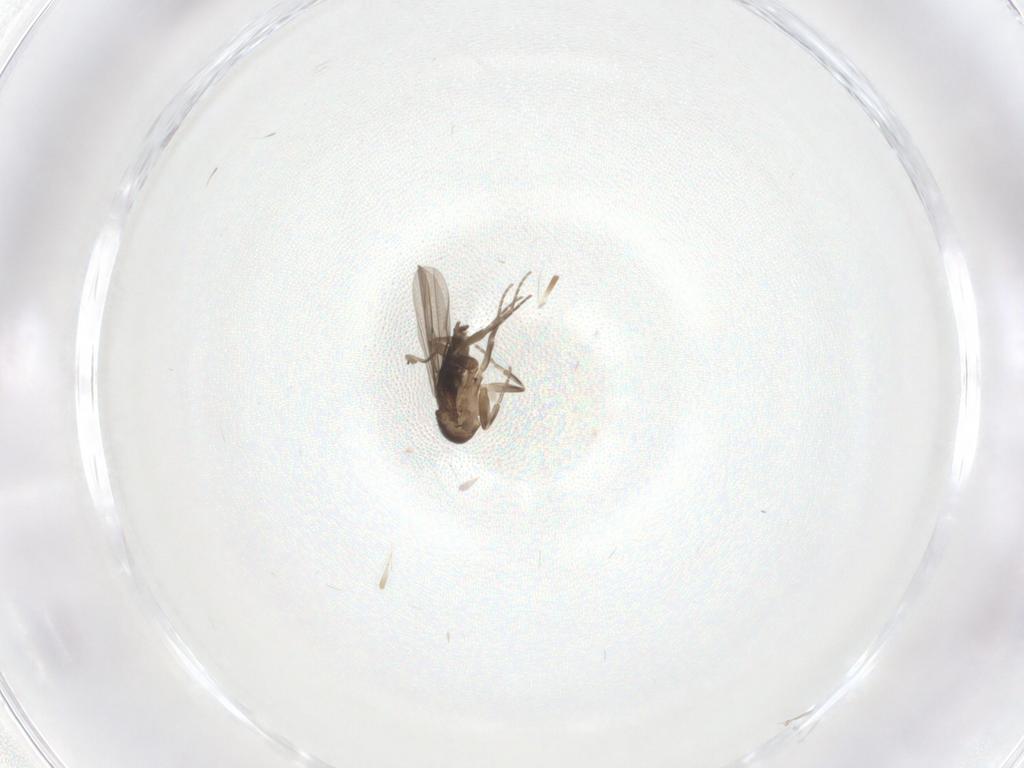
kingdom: Animalia
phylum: Arthropoda
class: Insecta
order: Diptera
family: Phoridae
